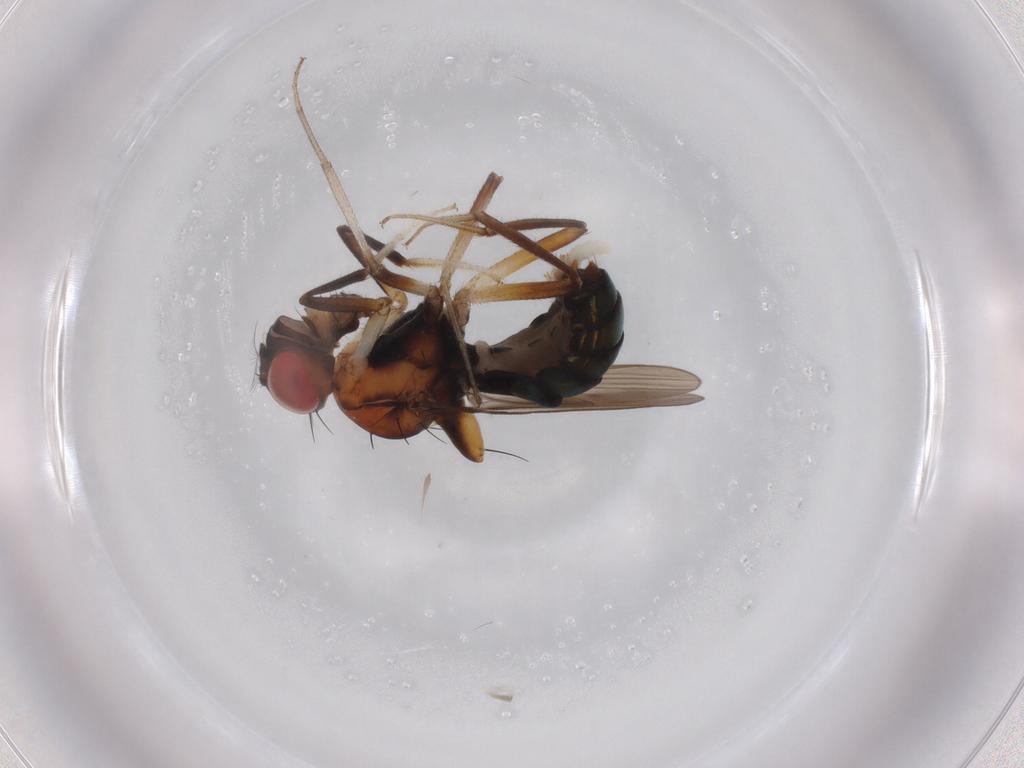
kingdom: Animalia
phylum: Arthropoda
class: Insecta
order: Diptera
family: Drosophilidae
